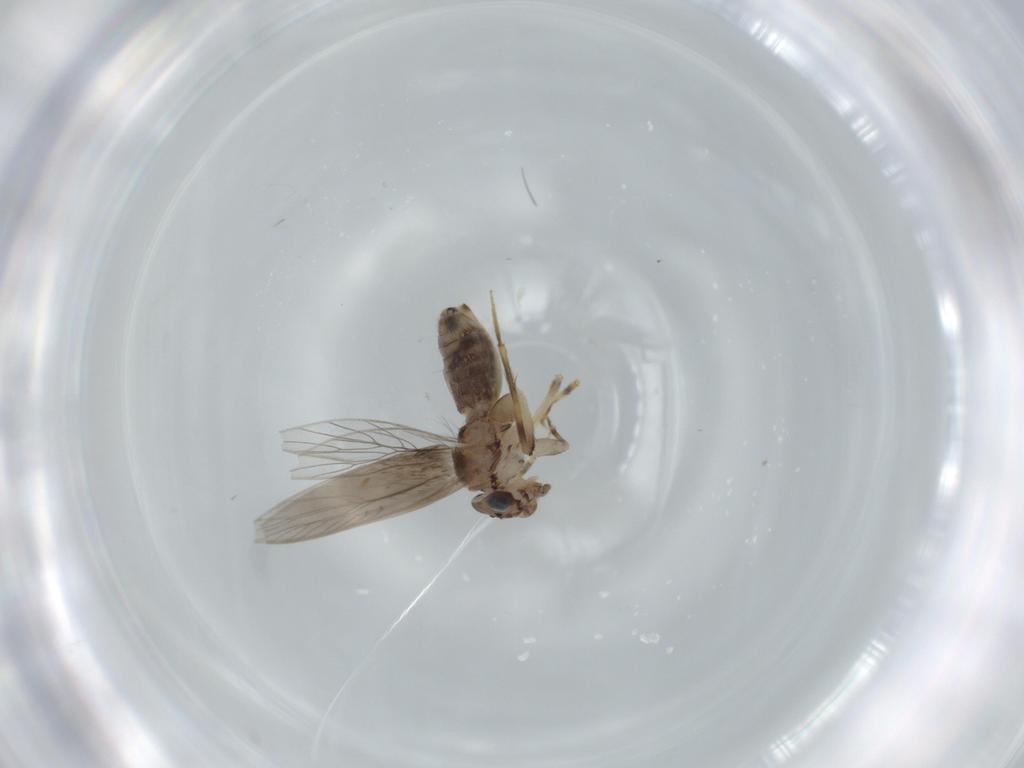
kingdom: Animalia
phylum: Arthropoda
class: Insecta
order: Psocodea
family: Lepidopsocidae
